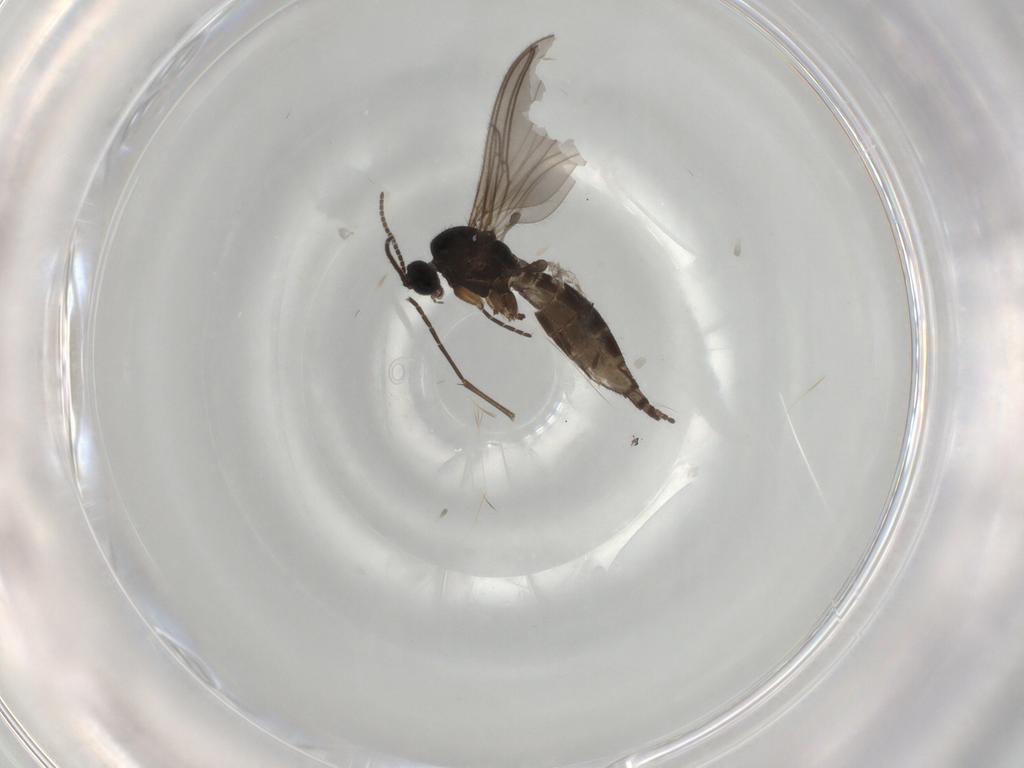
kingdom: Animalia
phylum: Arthropoda
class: Insecta
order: Diptera
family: Sciaridae
